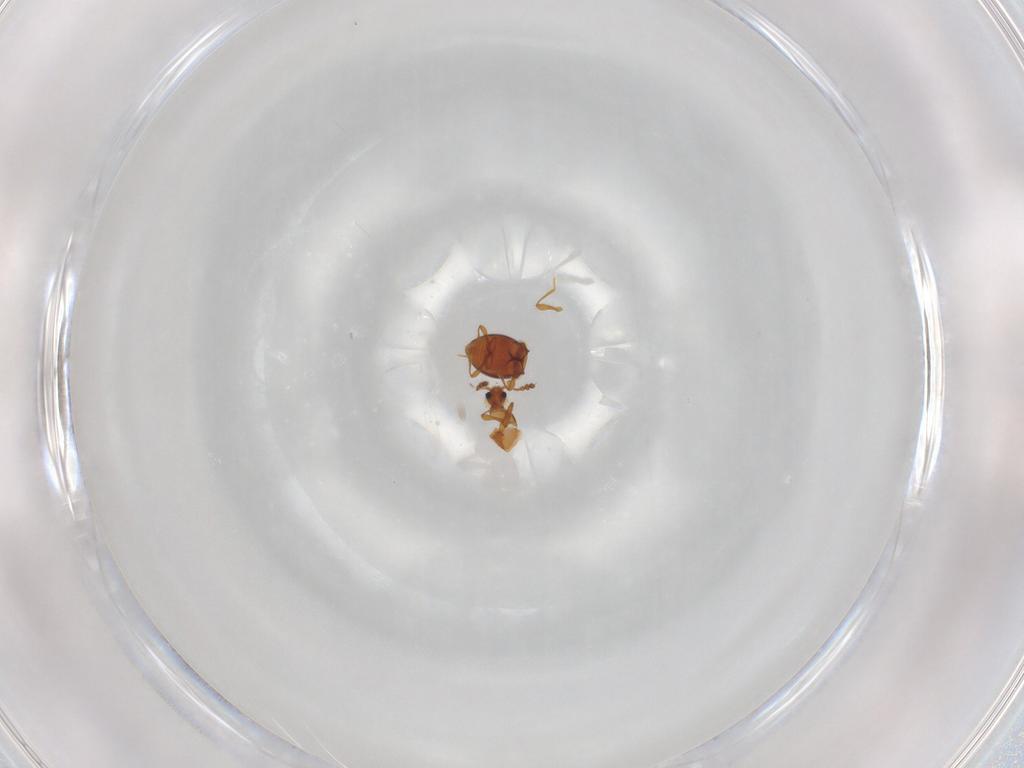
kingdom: Animalia
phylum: Arthropoda
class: Insecta
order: Coleoptera
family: Staphylinidae
